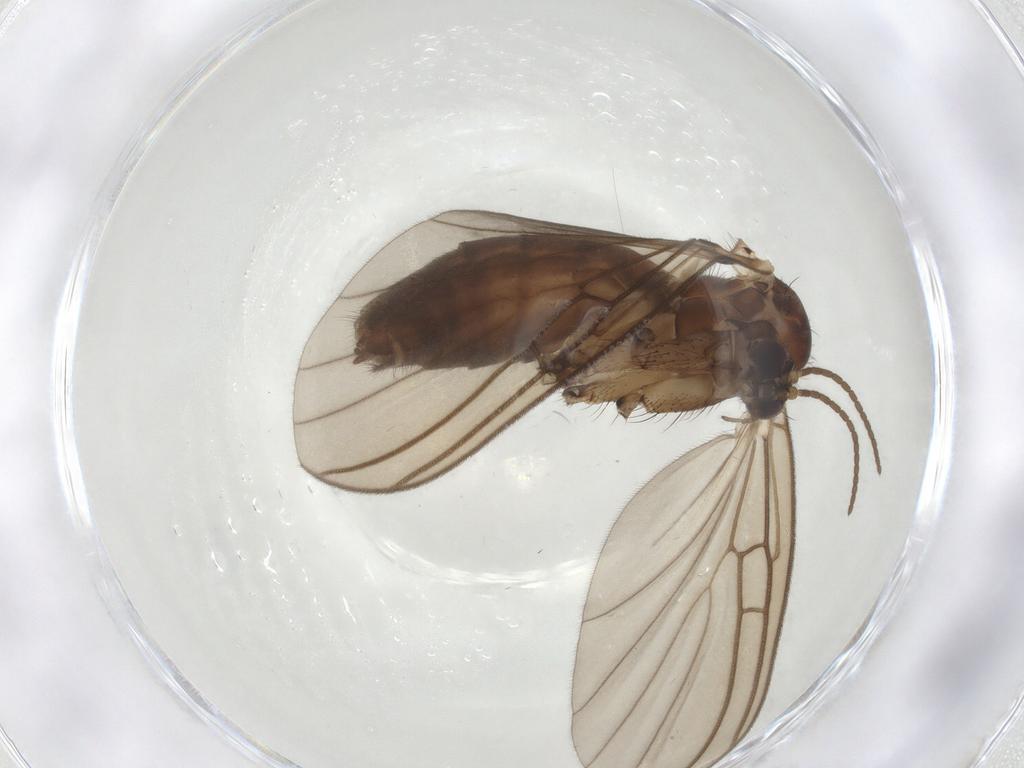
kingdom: Animalia
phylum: Arthropoda
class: Insecta
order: Diptera
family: Mycetophilidae
